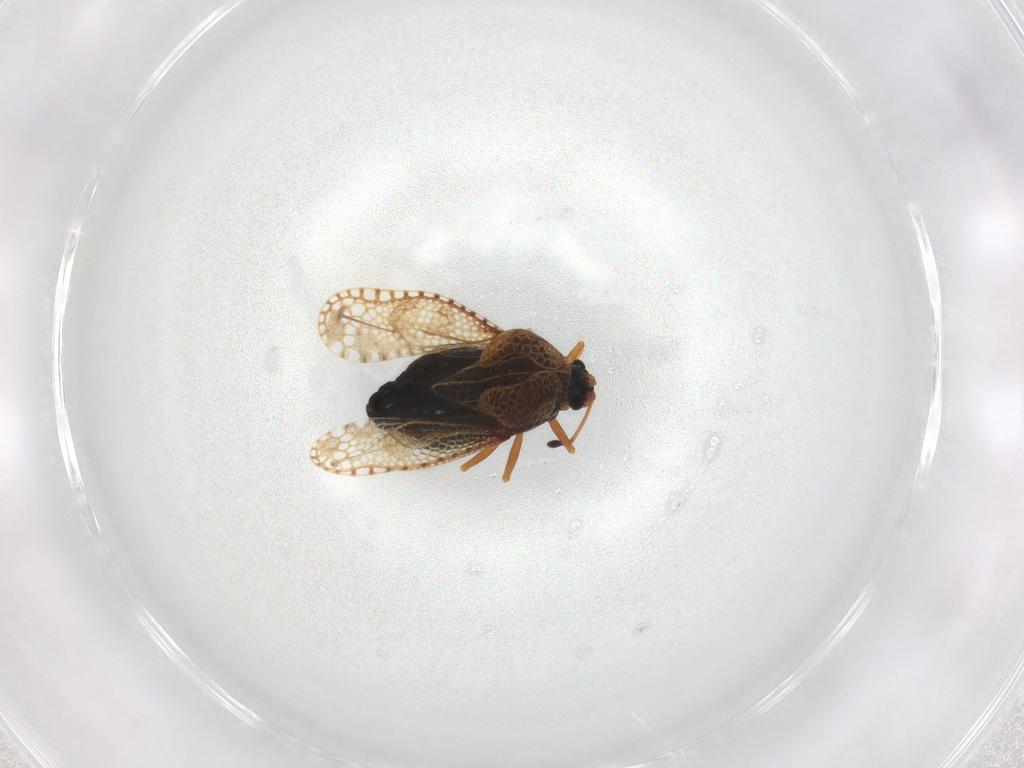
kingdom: Animalia
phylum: Arthropoda
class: Insecta
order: Hemiptera
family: Tingidae
